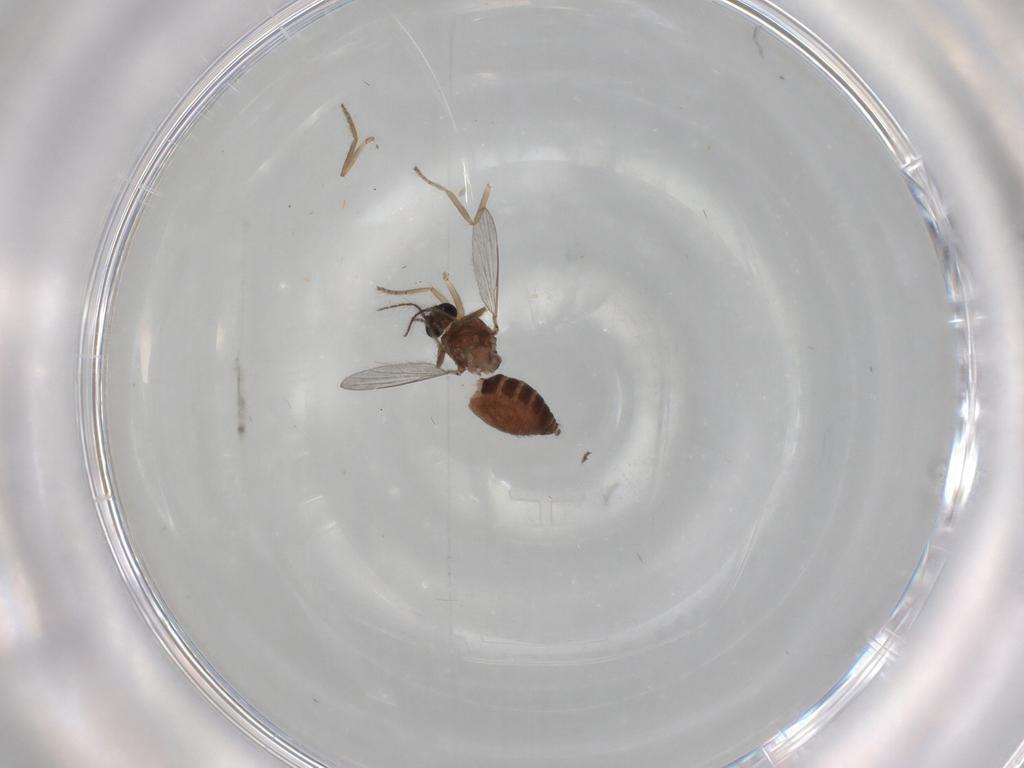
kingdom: Animalia
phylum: Arthropoda
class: Insecta
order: Diptera
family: Ceratopogonidae
